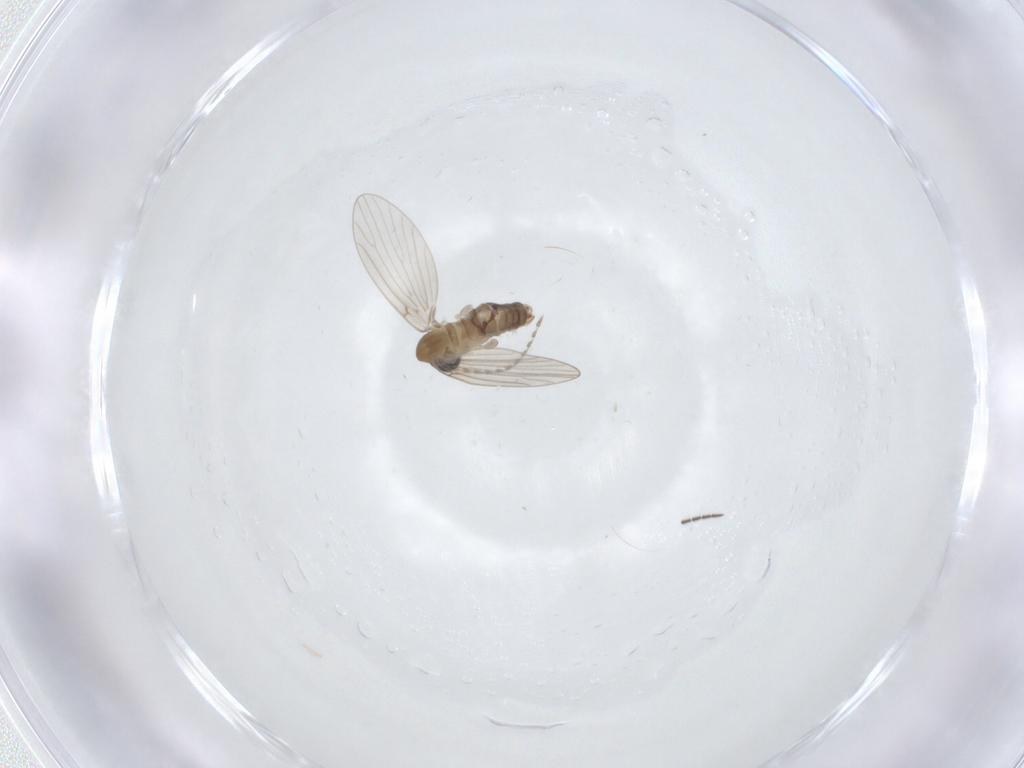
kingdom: Animalia
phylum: Arthropoda
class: Insecta
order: Diptera
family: Psychodidae
